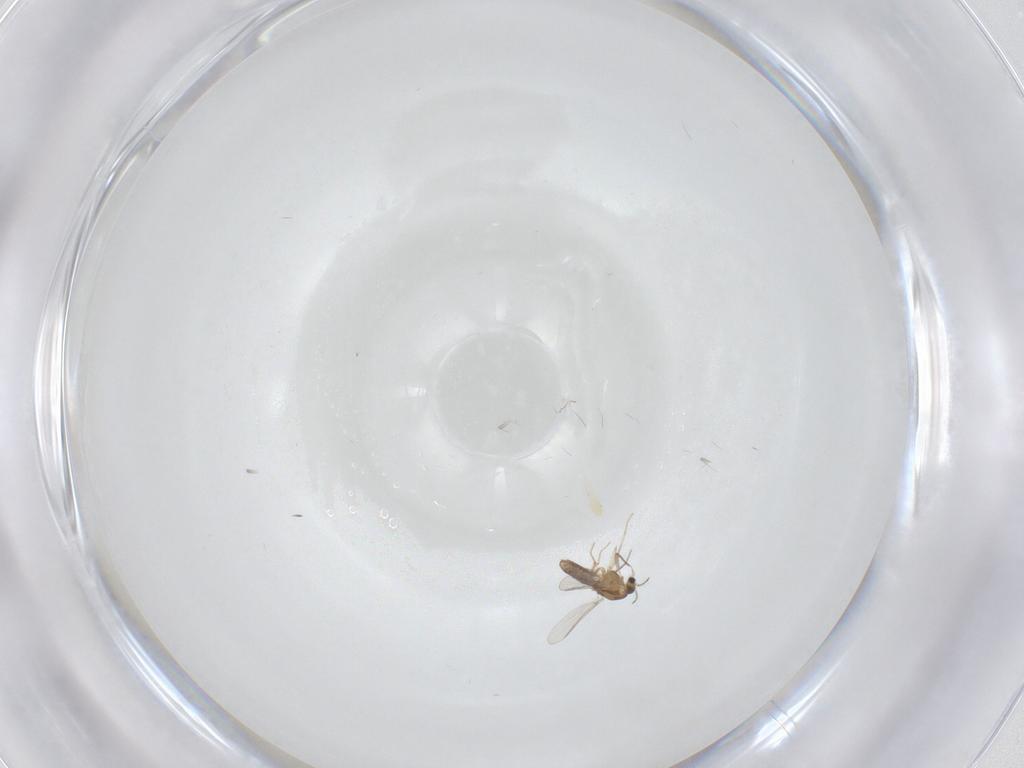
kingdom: Animalia
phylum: Arthropoda
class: Insecta
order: Diptera
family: Chironomidae
